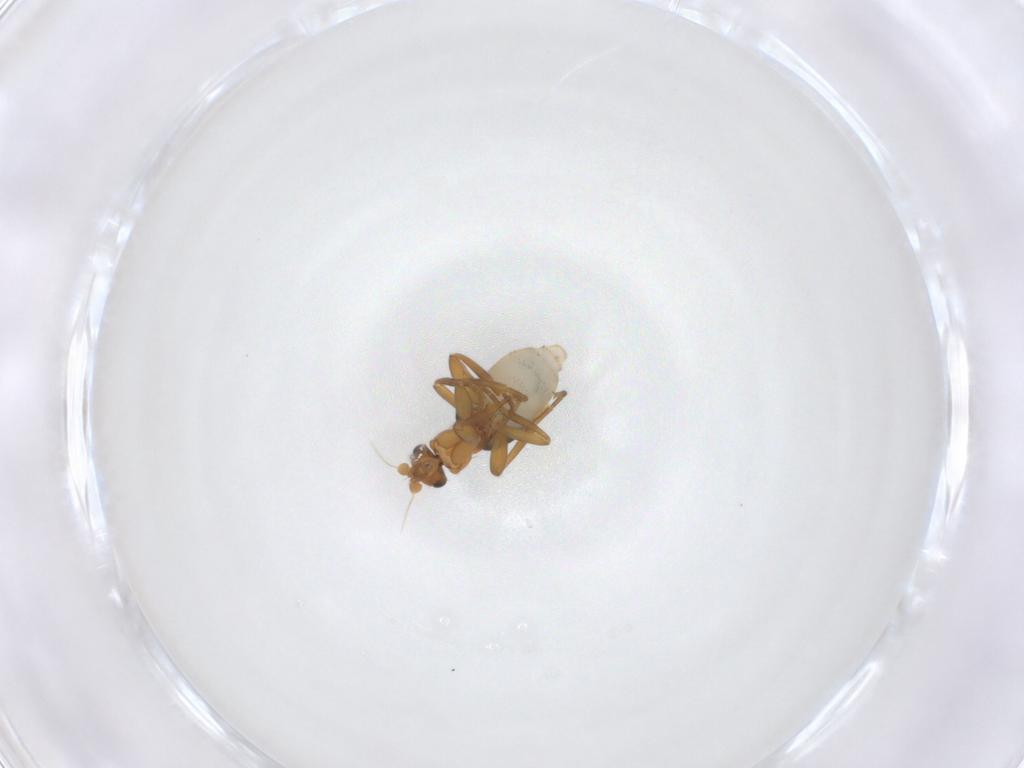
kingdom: Animalia
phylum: Arthropoda
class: Insecta
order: Diptera
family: Phoridae
